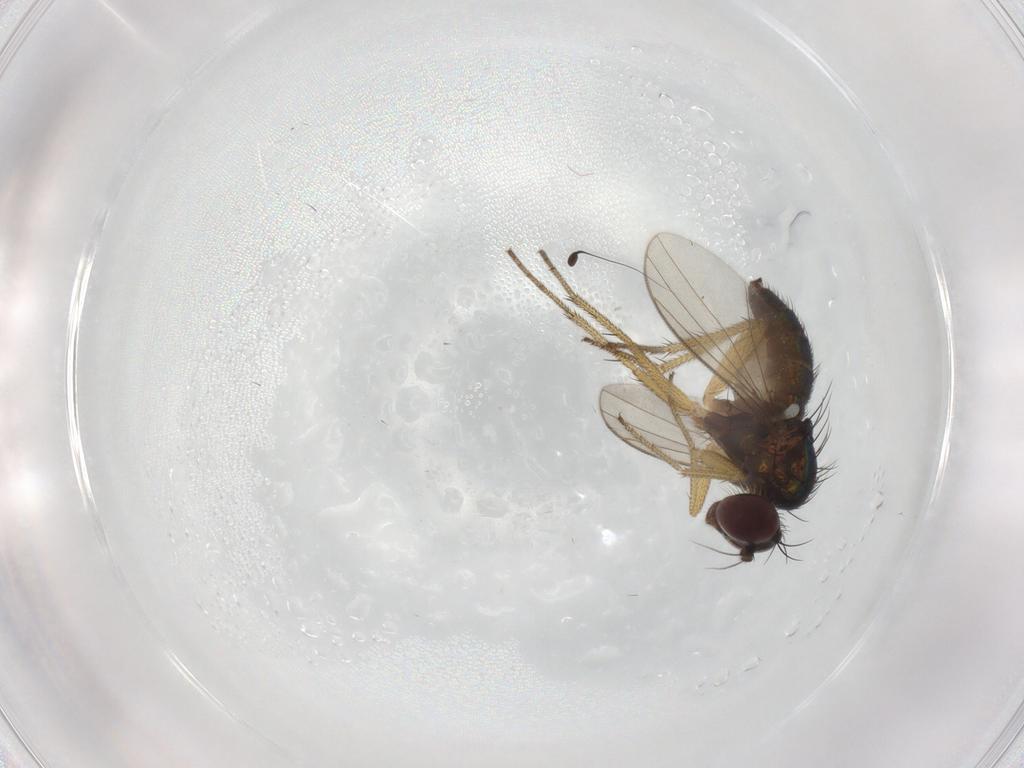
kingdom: Animalia
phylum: Arthropoda
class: Insecta
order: Diptera
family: Dolichopodidae
